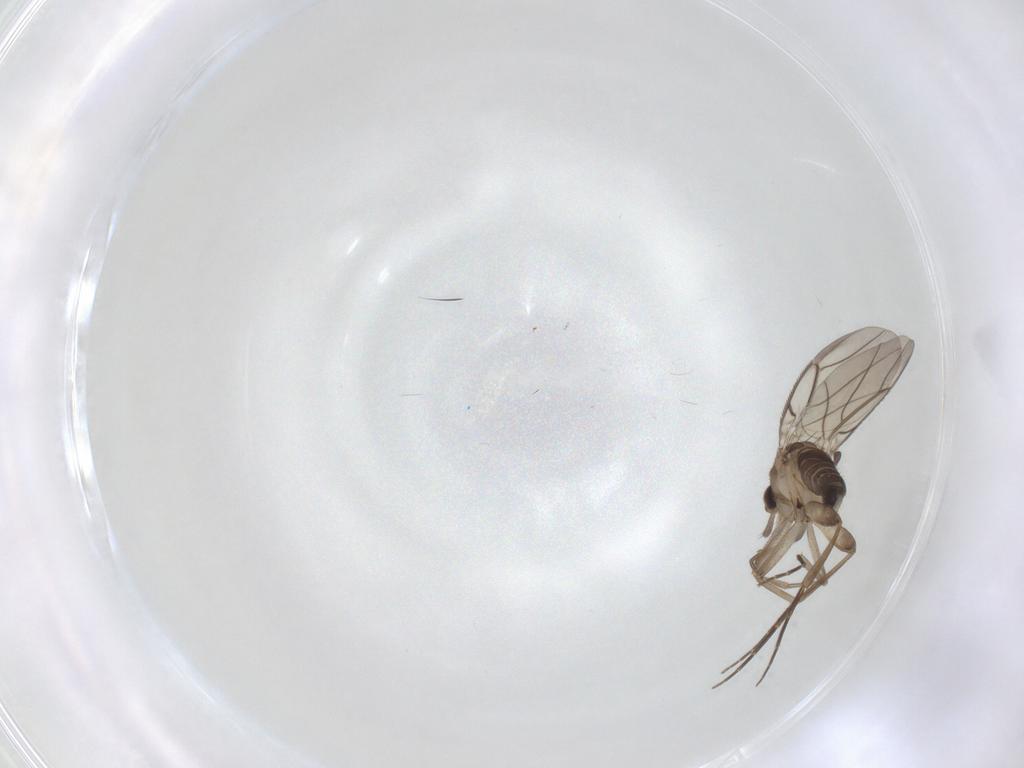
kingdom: Animalia
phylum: Arthropoda
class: Insecta
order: Diptera
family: Phoridae
